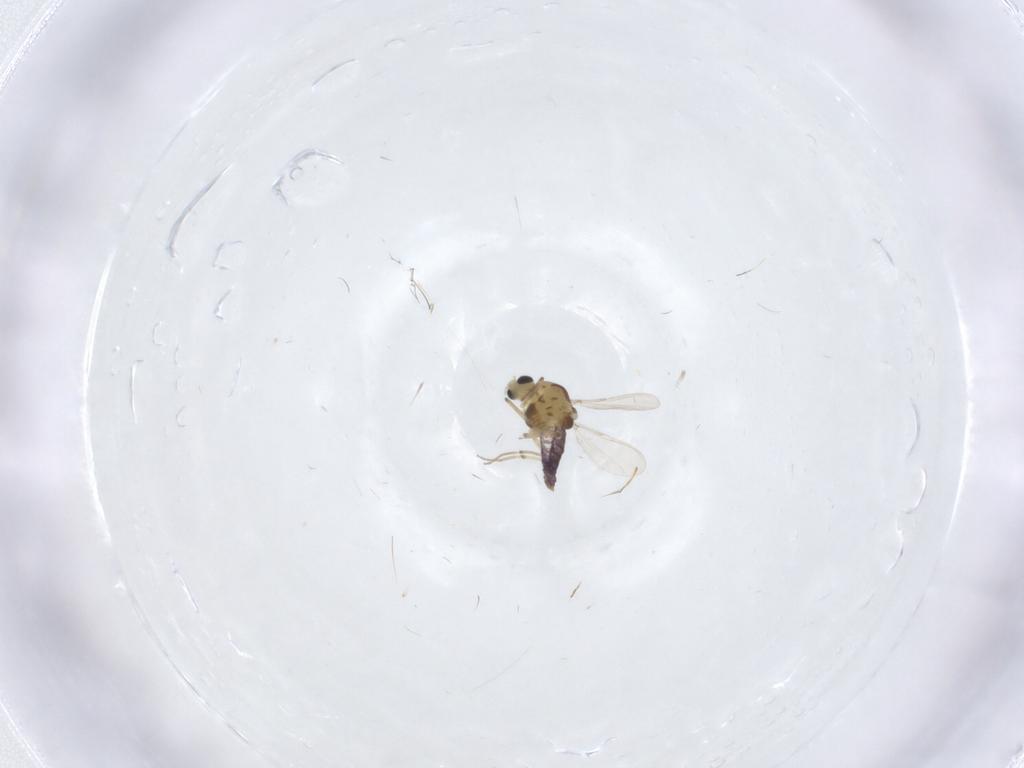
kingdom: Animalia
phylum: Arthropoda
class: Insecta
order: Diptera
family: Chironomidae
